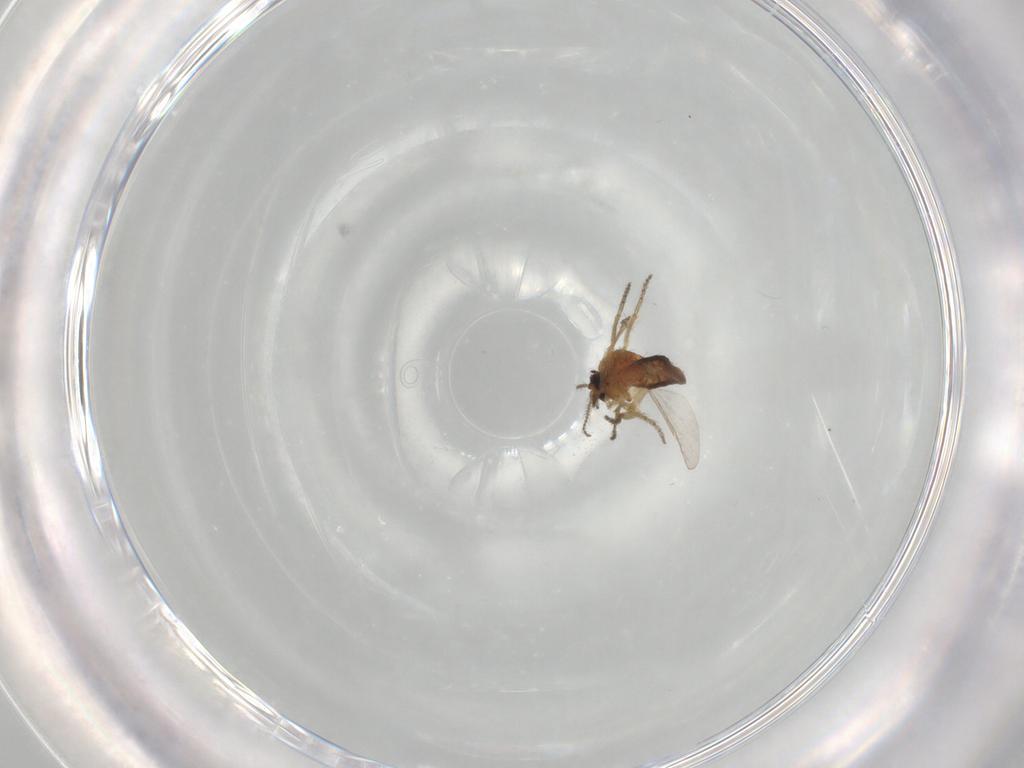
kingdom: Animalia
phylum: Arthropoda
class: Insecta
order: Diptera
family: Ceratopogonidae
